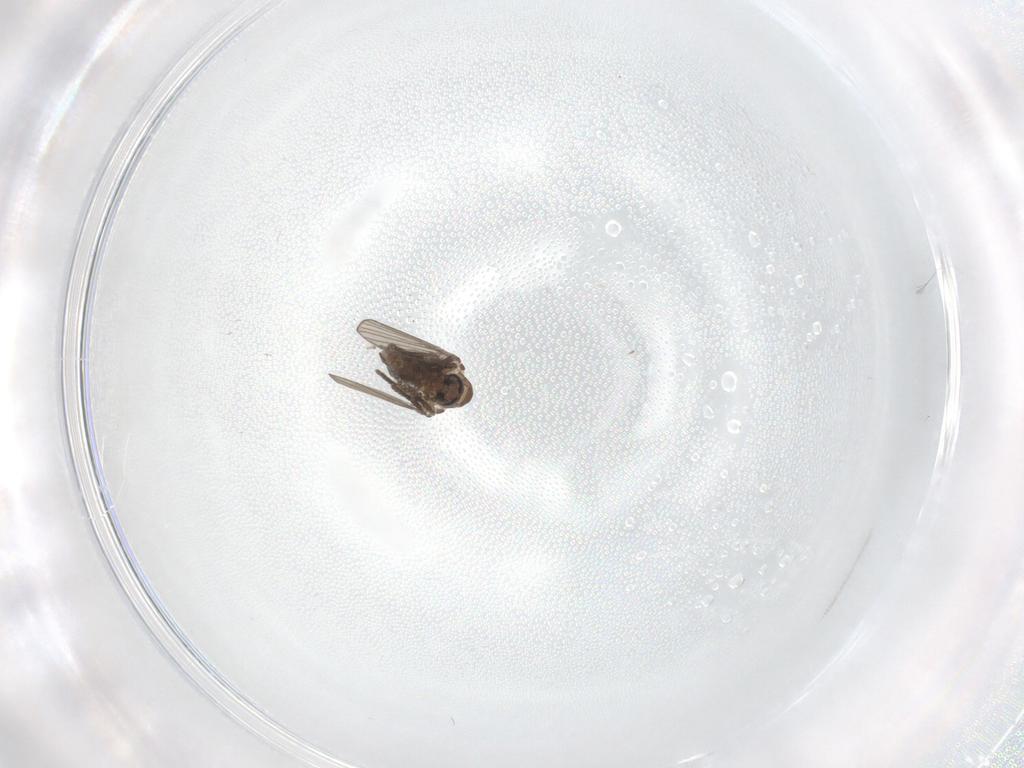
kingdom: Animalia
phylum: Arthropoda
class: Insecta
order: Diptera
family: Psychodidae
